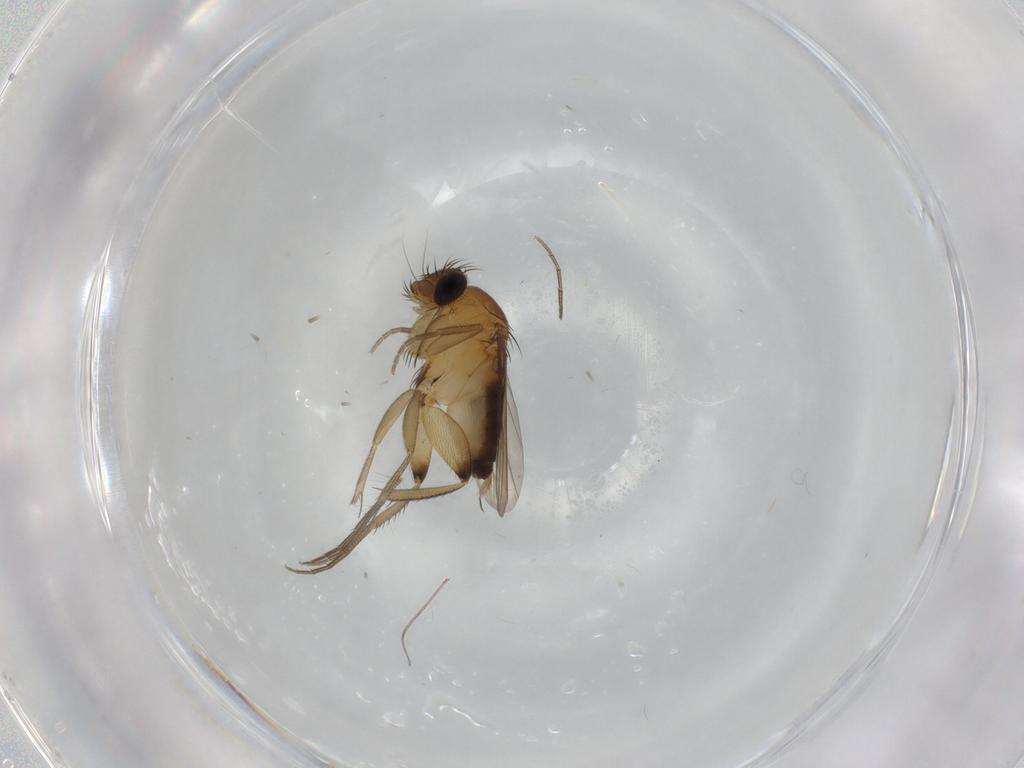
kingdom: Animalia
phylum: Arthropoda
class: Insecta
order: Diptera
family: Phoridae
